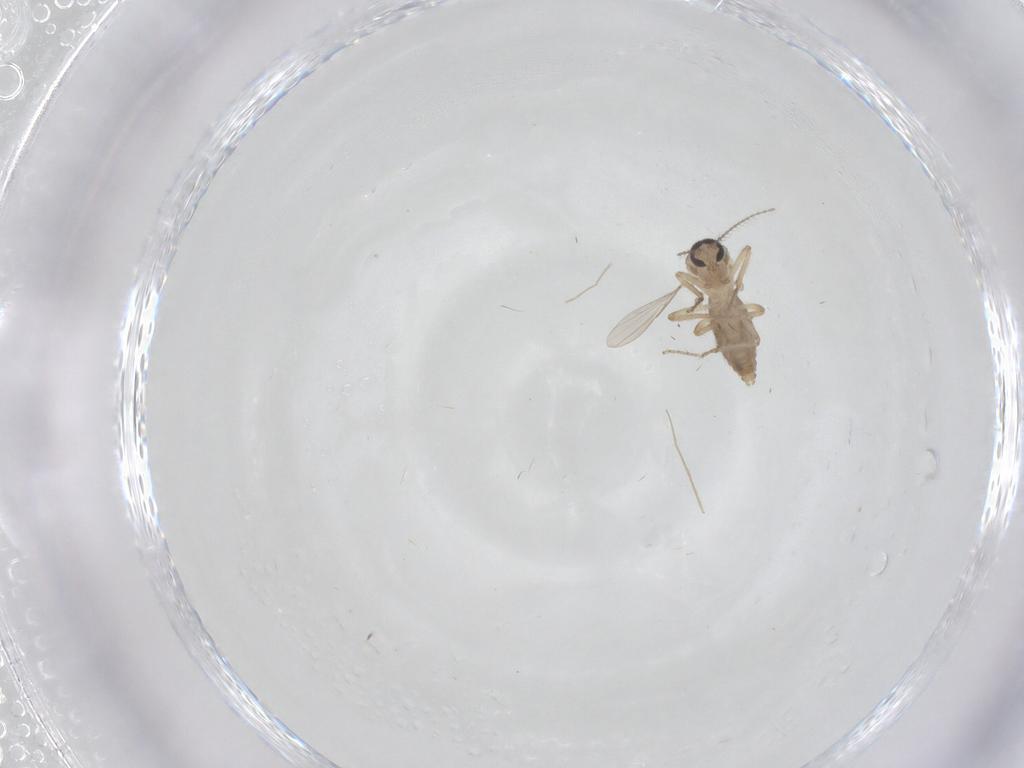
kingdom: Animalia
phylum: Arthropoda
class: Insecta
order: Diptera
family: Ceratopogonidae
